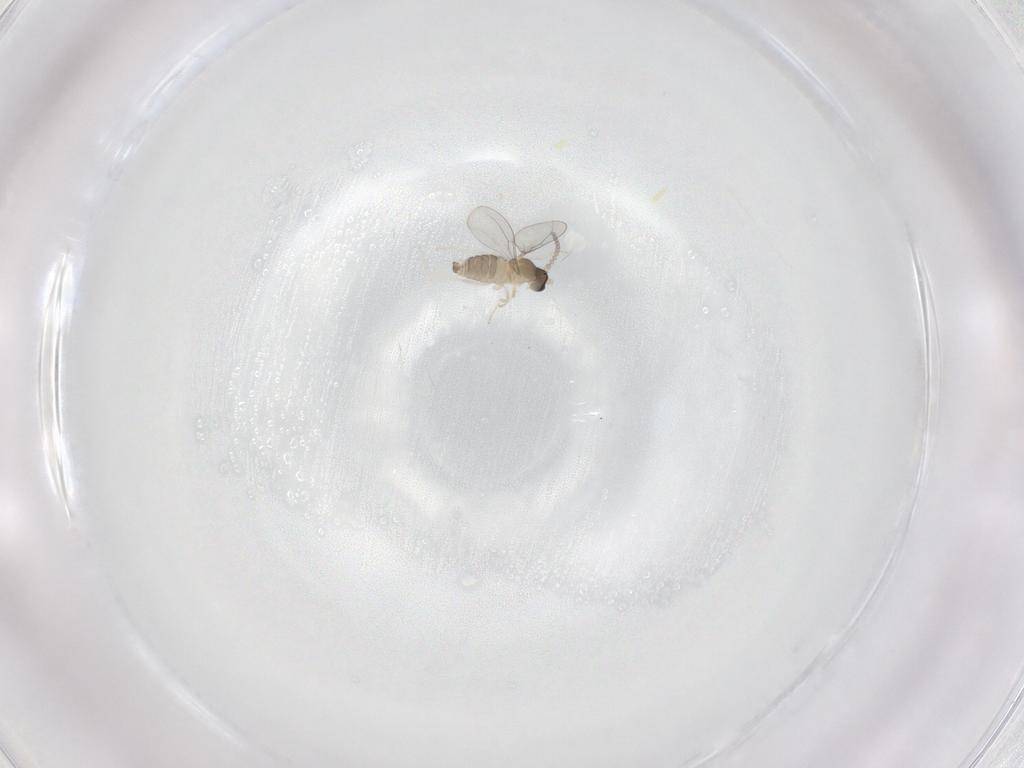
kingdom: Animalia
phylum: Arthropoda
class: Insecta
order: Diptera
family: Cecidomyiidae
